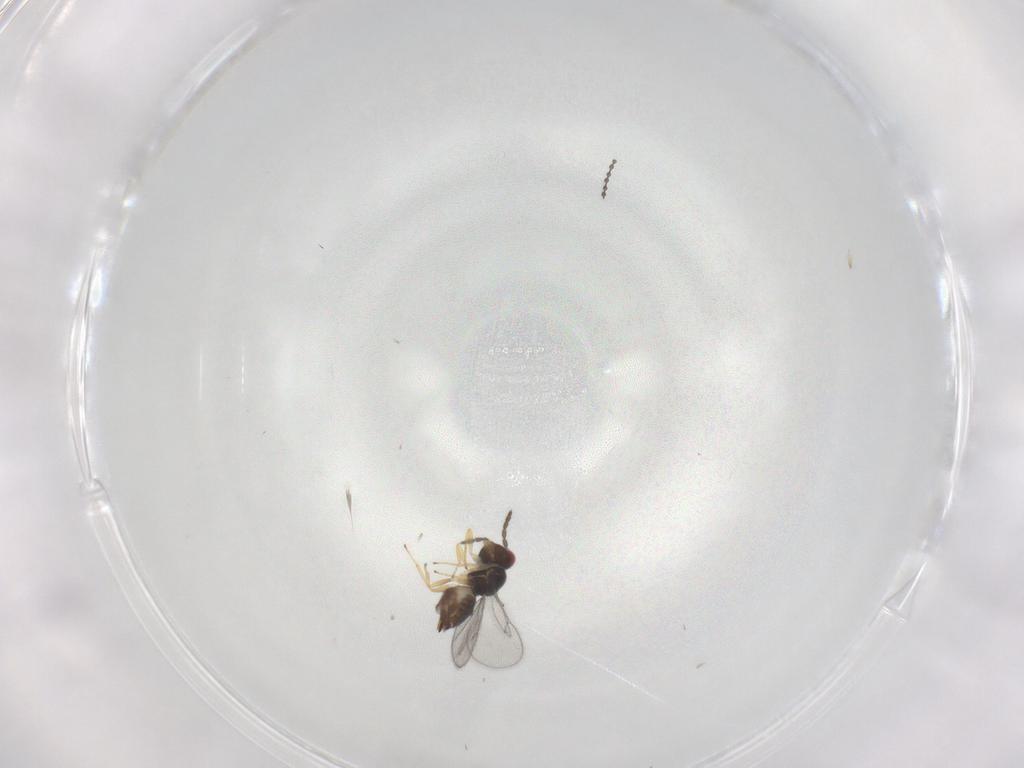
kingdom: Animalia
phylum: Arthropoda
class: Insecta
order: Hymenoptera
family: Eulophidae
